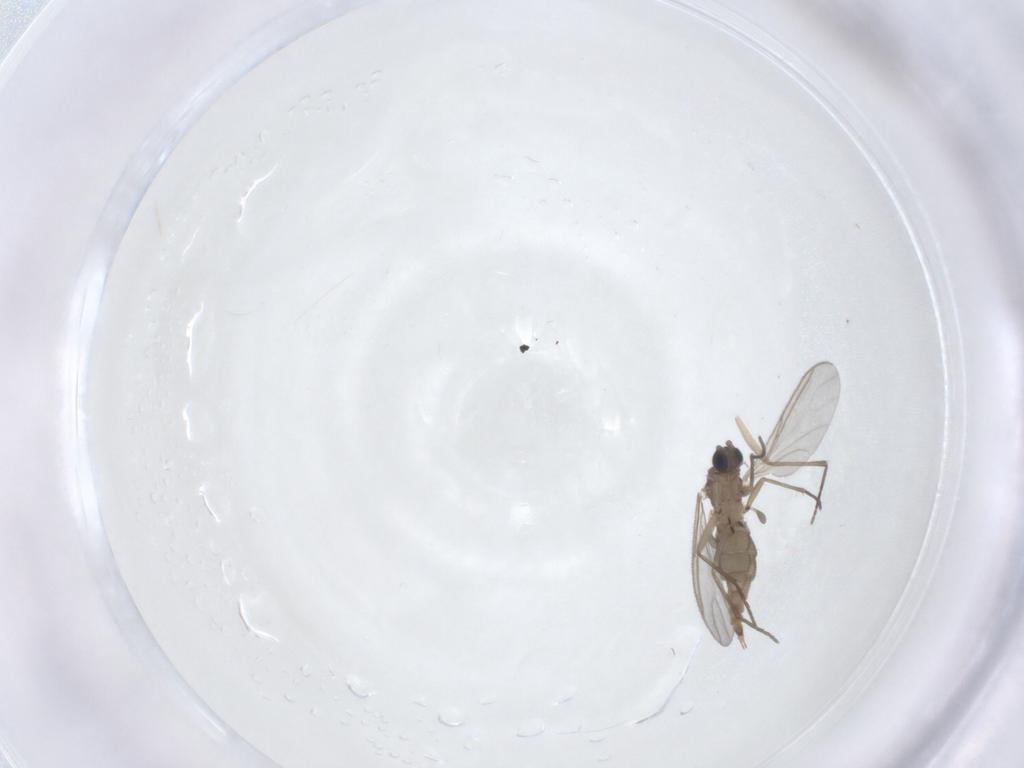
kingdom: Animalia
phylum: Arthropoda
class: Insecta
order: Diptera
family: Sciaridae
